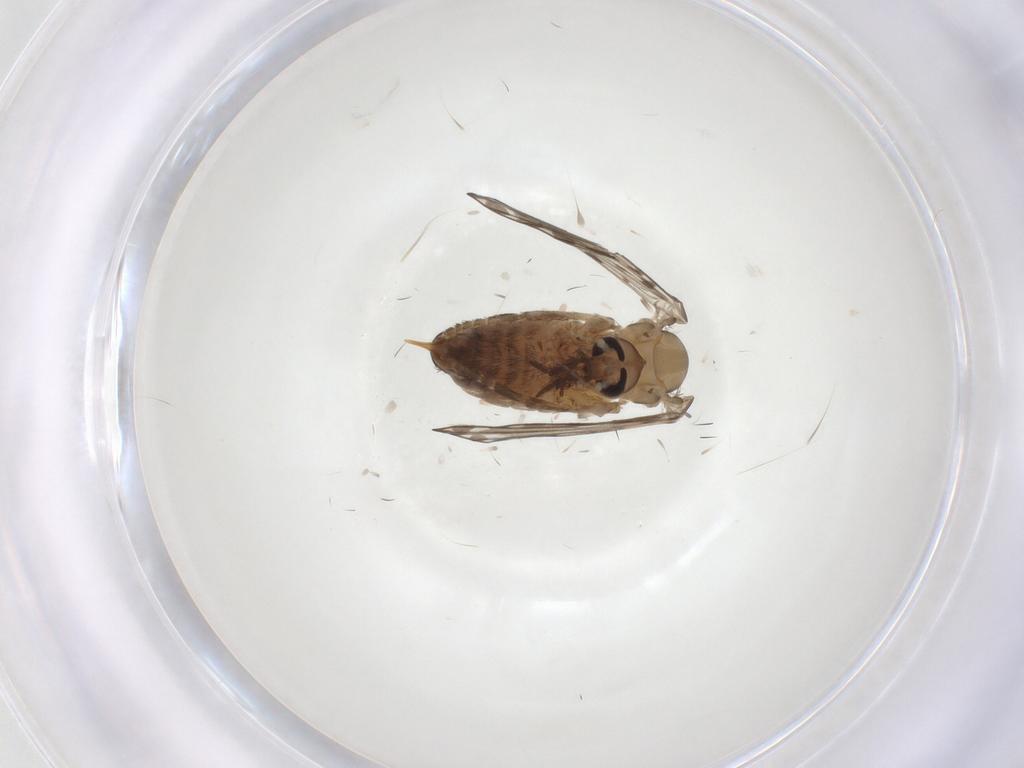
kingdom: Animalia
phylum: Arthropoda
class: Insecta
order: Diptera
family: Psychodidae
